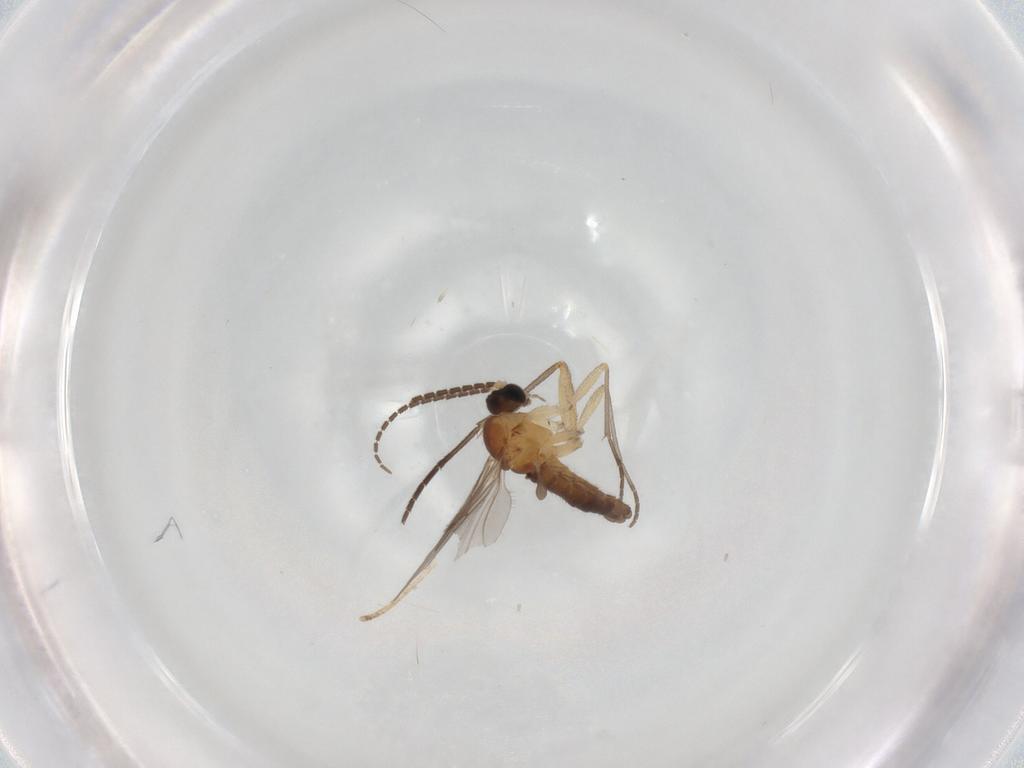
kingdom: Animalia
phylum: Arthropoda
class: Insecta
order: Diptera
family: Sciaridae
